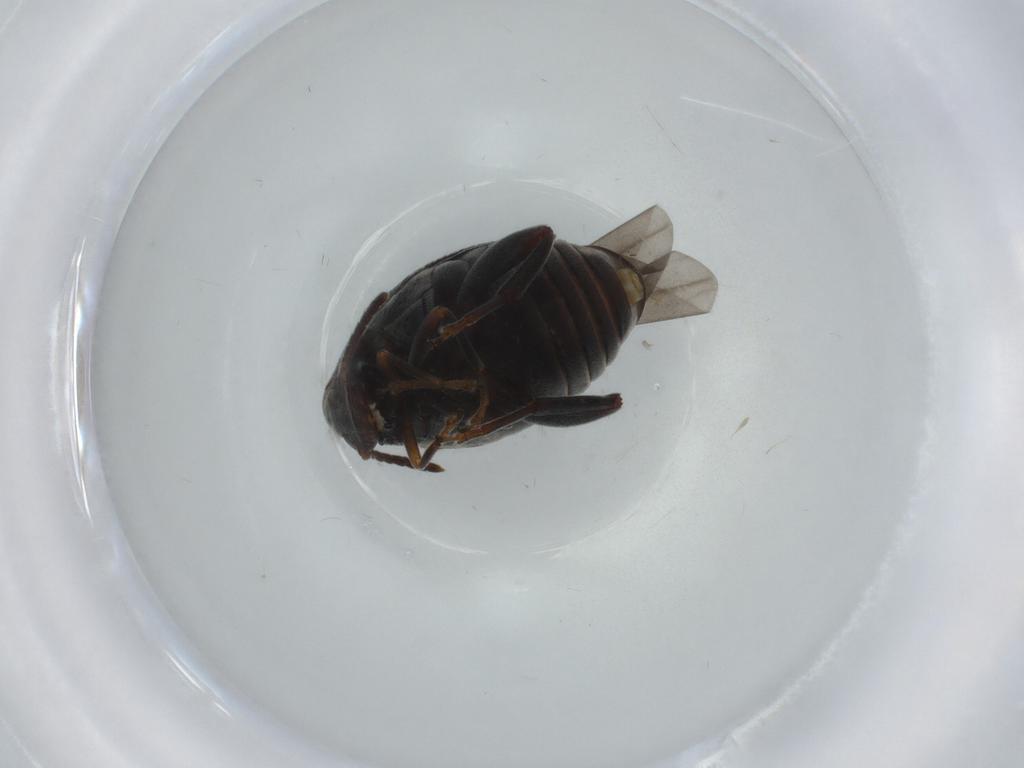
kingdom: Animalia
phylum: Arthropoda
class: Insecta
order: Coleoptera
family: Chrysomelidae
